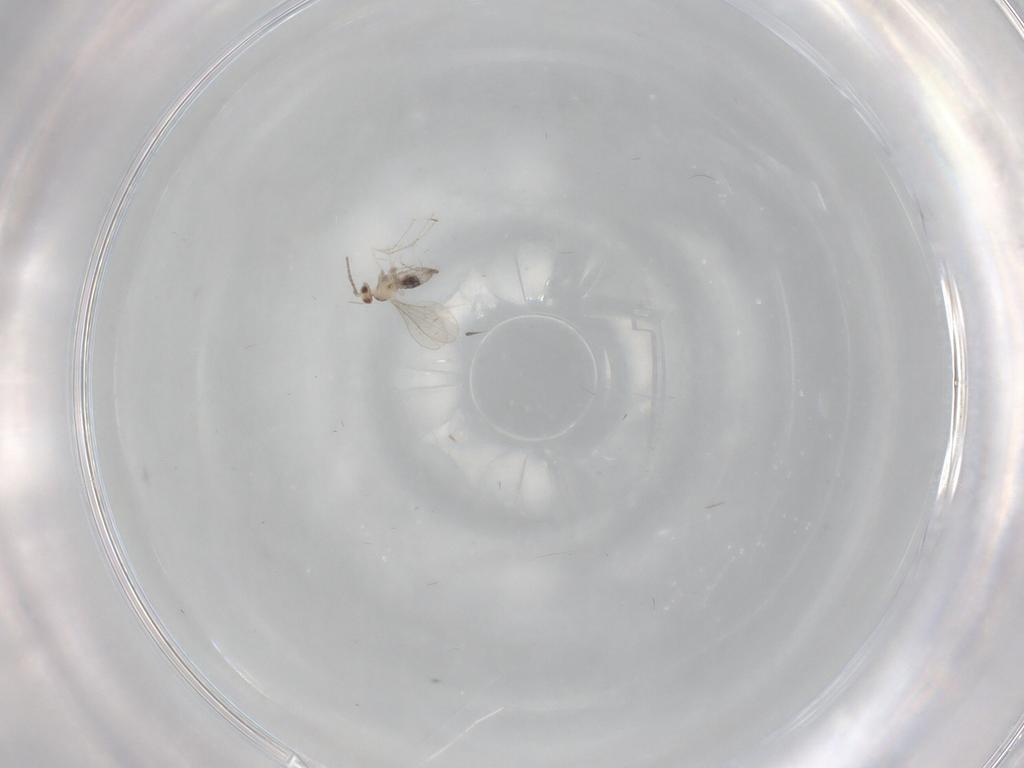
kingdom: Animalia
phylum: Arthropoda
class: Insecta
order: Diptera
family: Cecidomyiidae
